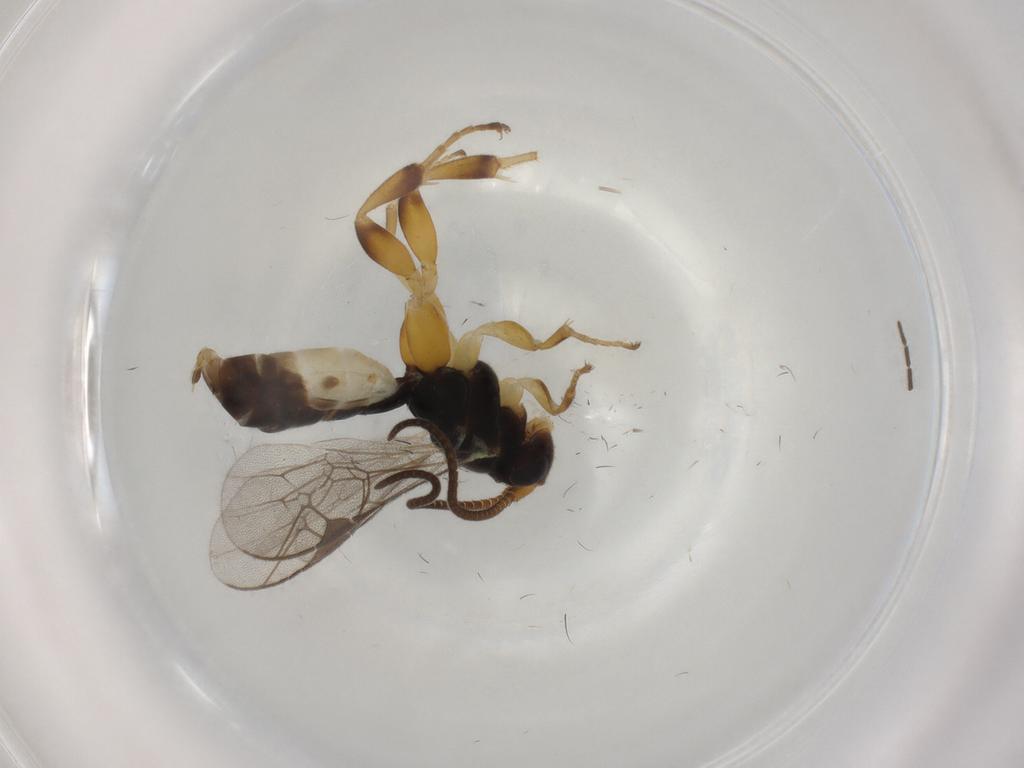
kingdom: Animalia
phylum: Arthropoda
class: Insecta
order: Hymenoptera
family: Ichneumonidae
